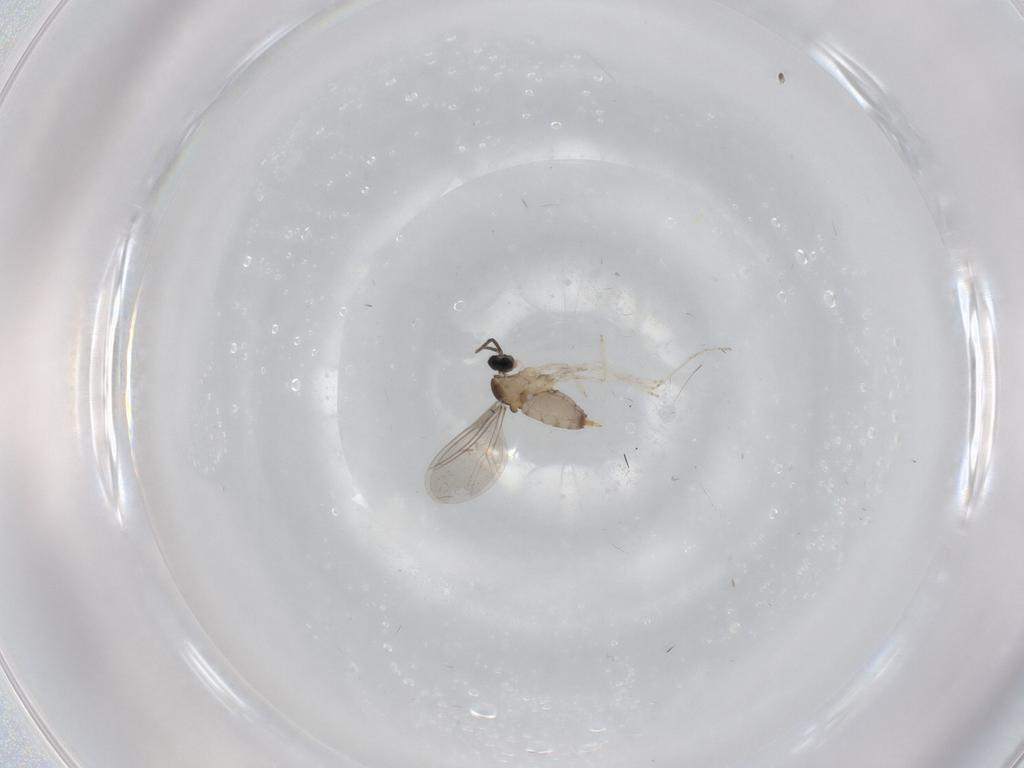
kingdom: Animalia
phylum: Arthropoda
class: Insecta
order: Diptera
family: Cecidomyiidae
